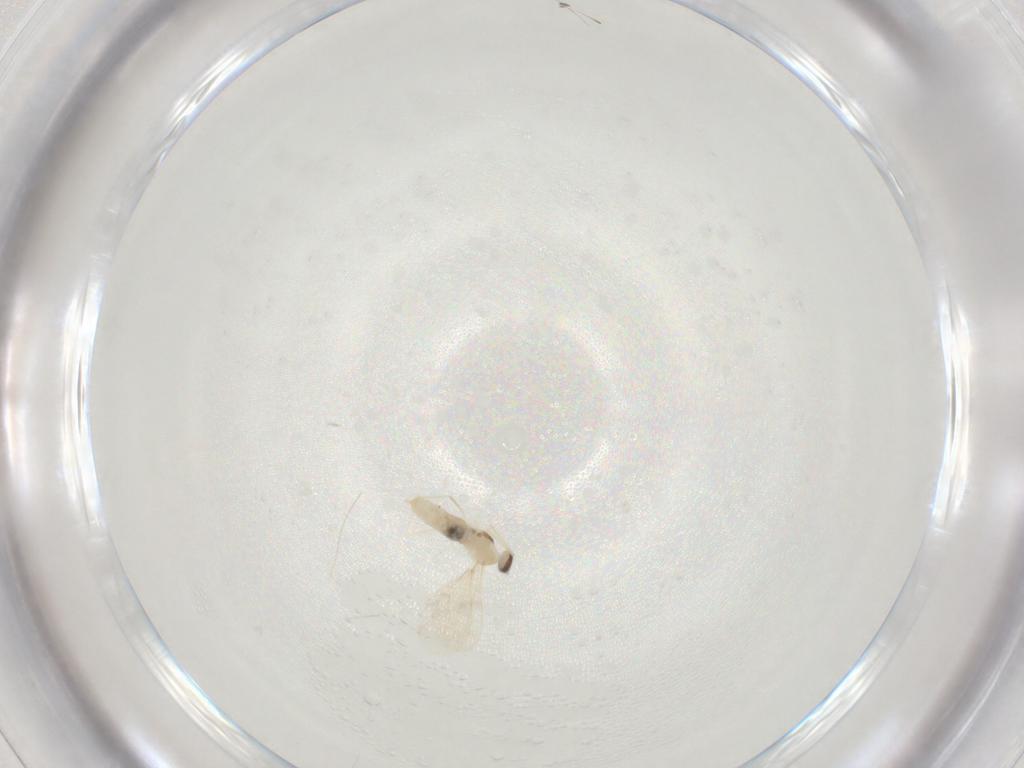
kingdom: Animalia
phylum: Arthropoda
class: Insecta
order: Diptera
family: Cecidomyiidae
